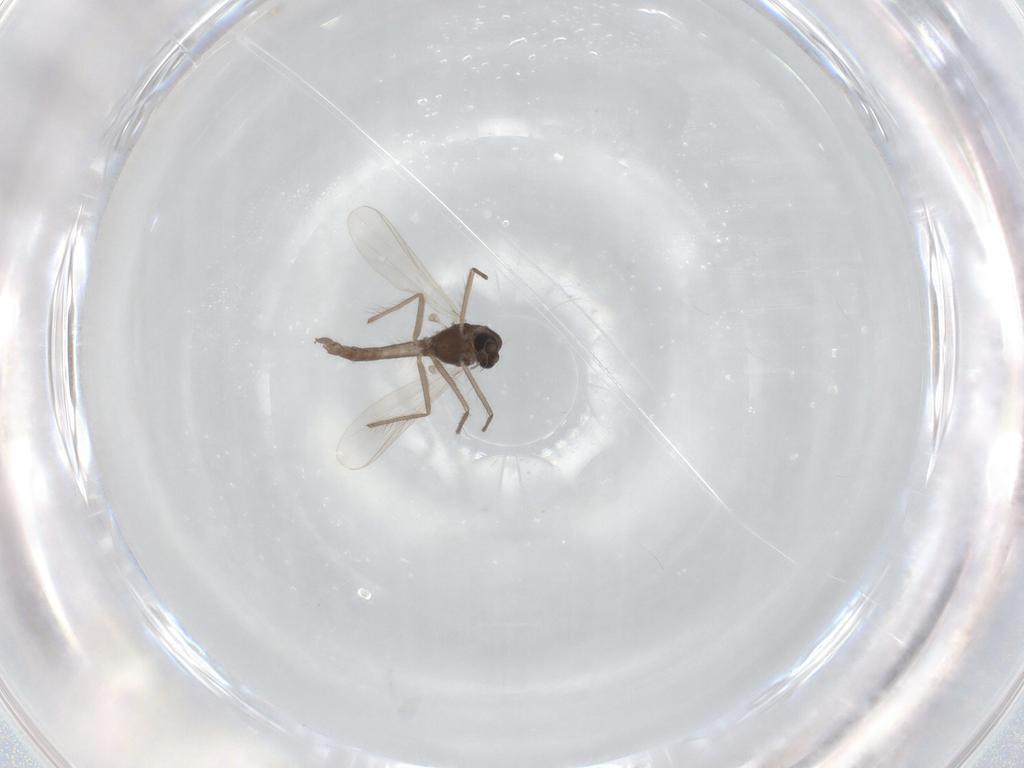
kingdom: Animalia
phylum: Arthropoda
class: Insecta
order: Diptera
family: Chironomidae
